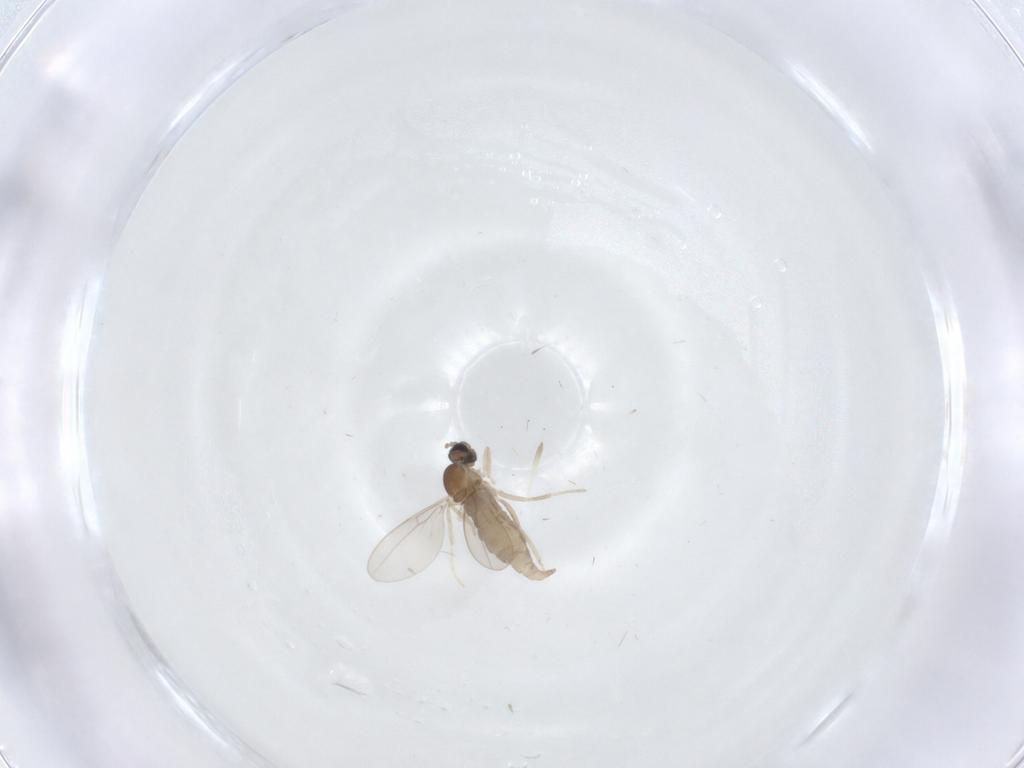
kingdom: Animalia
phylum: Arthropoda
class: Insecta
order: Diptera
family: Cecidomyiidae
